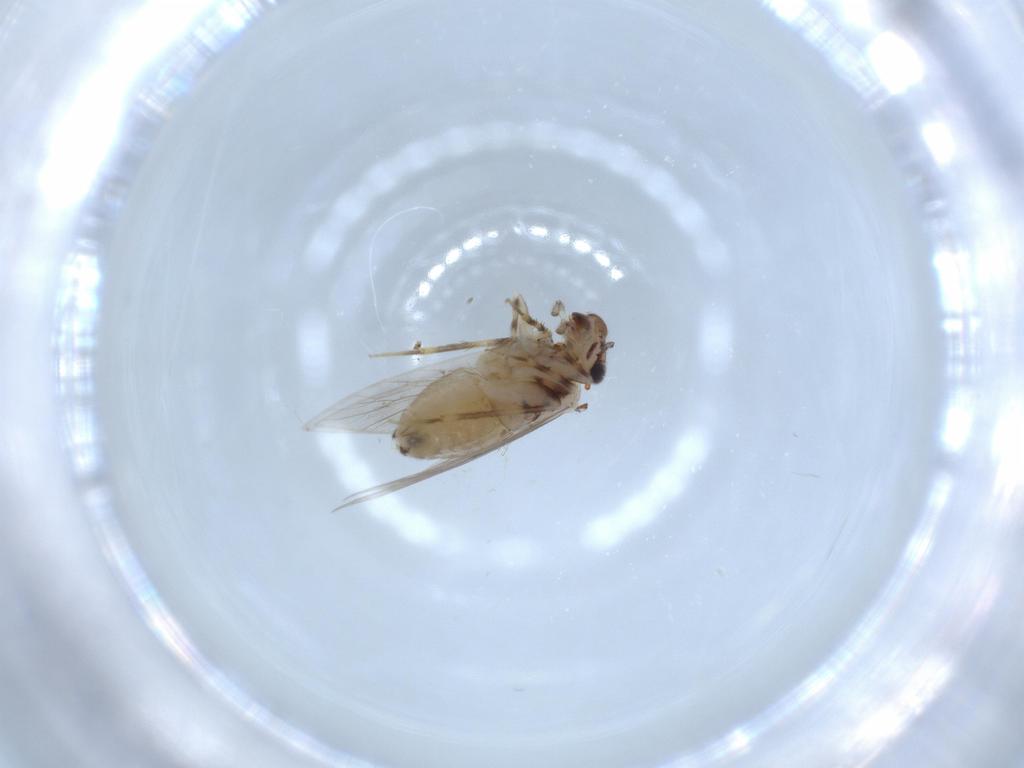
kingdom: Animalia
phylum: Arthropoda
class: Insecta
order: Psocodea
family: Lepidopsocidae
